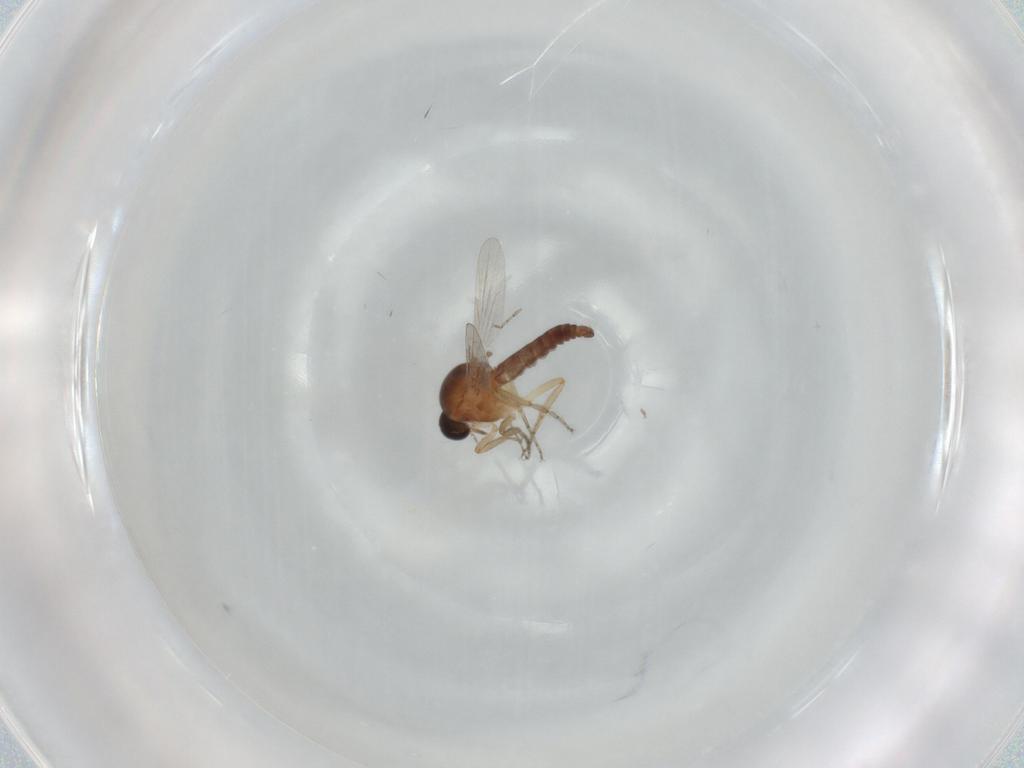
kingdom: Animalia
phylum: Arthropoda
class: Insecta
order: Diptera
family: Ceratopogonidae
